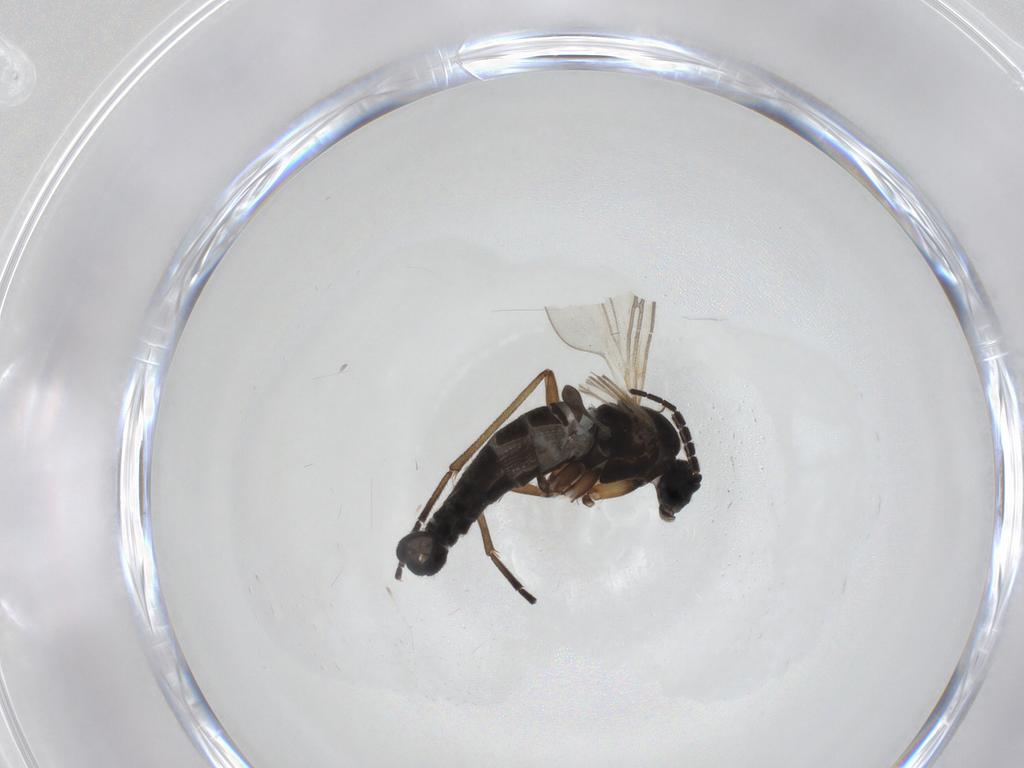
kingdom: Animalia
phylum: Arthropoda
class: Insecta
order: Diptera
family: Sciaridae
